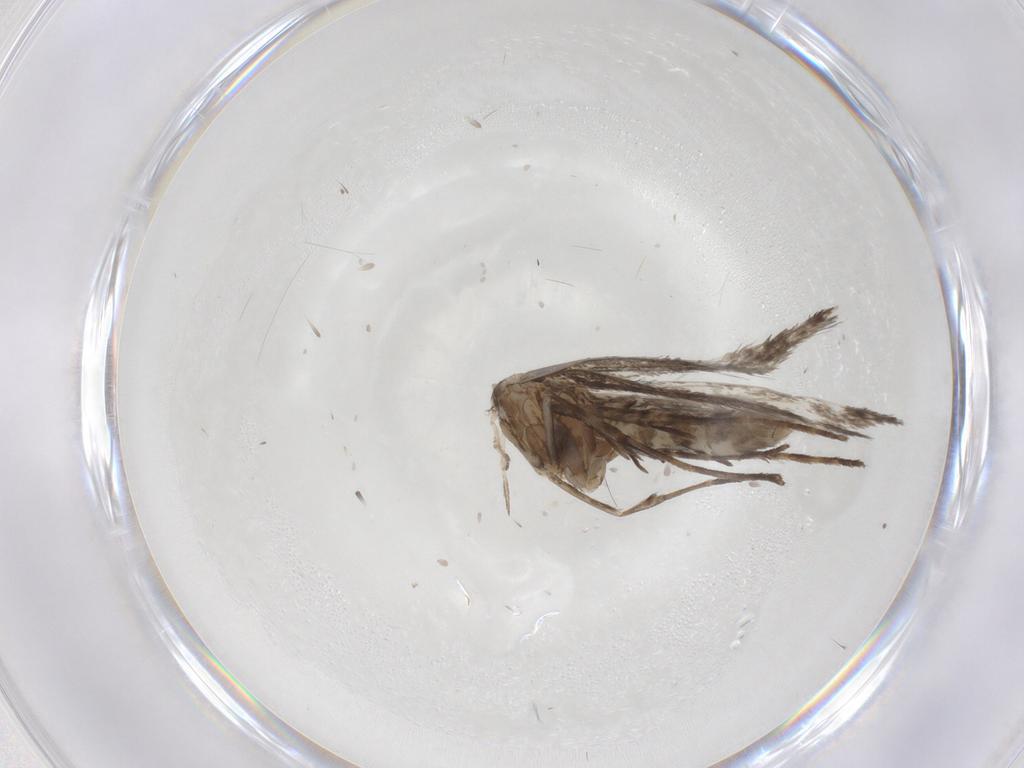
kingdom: Animalia
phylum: Arthropoda
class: Insecta
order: Lepidoptera
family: Gracillariidae
